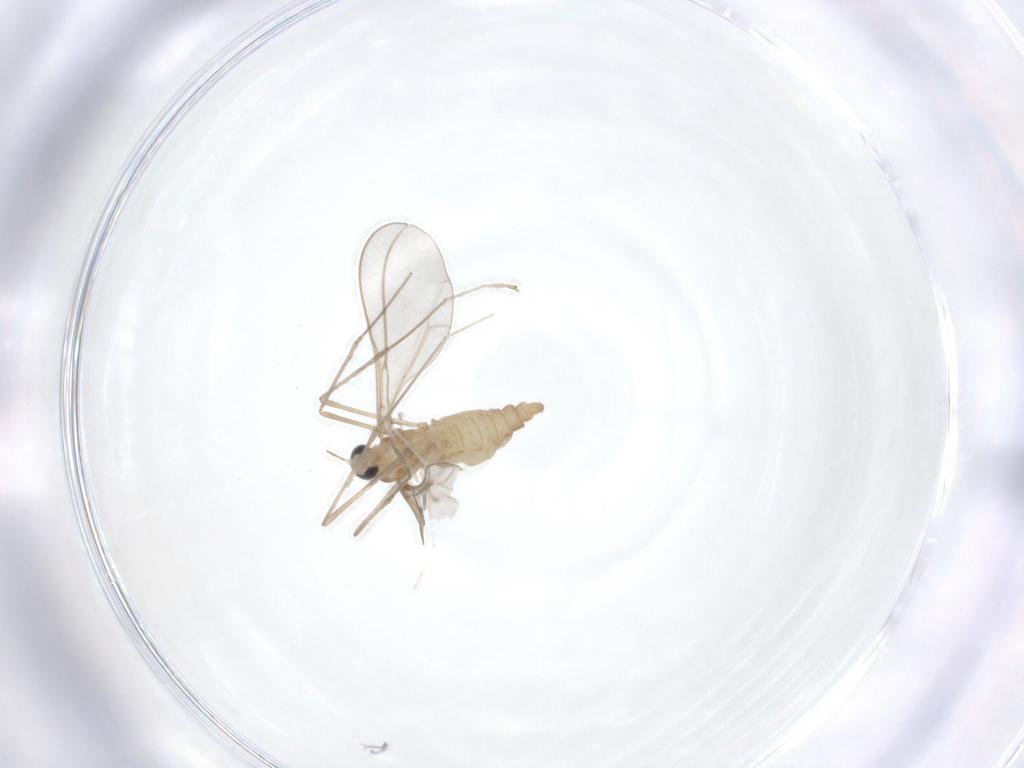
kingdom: Animalia
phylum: Arthropoda
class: Insecta
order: Diptera
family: Cecidomyiidae
